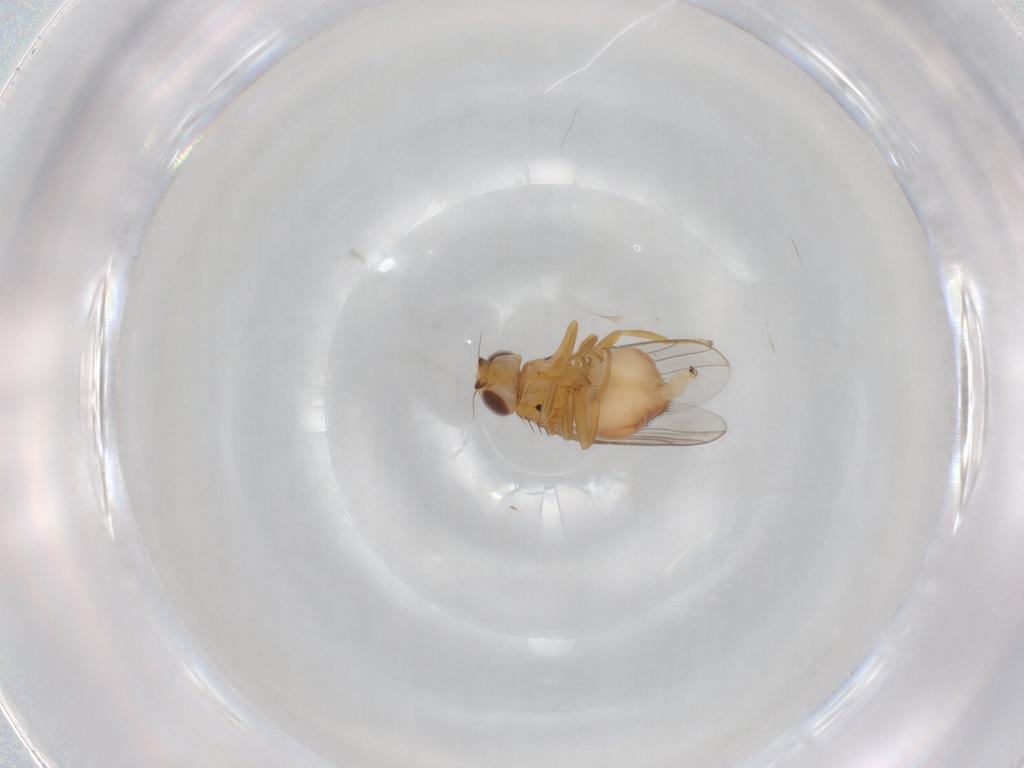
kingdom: Animalia
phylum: Arthropoda
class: Insecta
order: Diptera
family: Chloropidae
